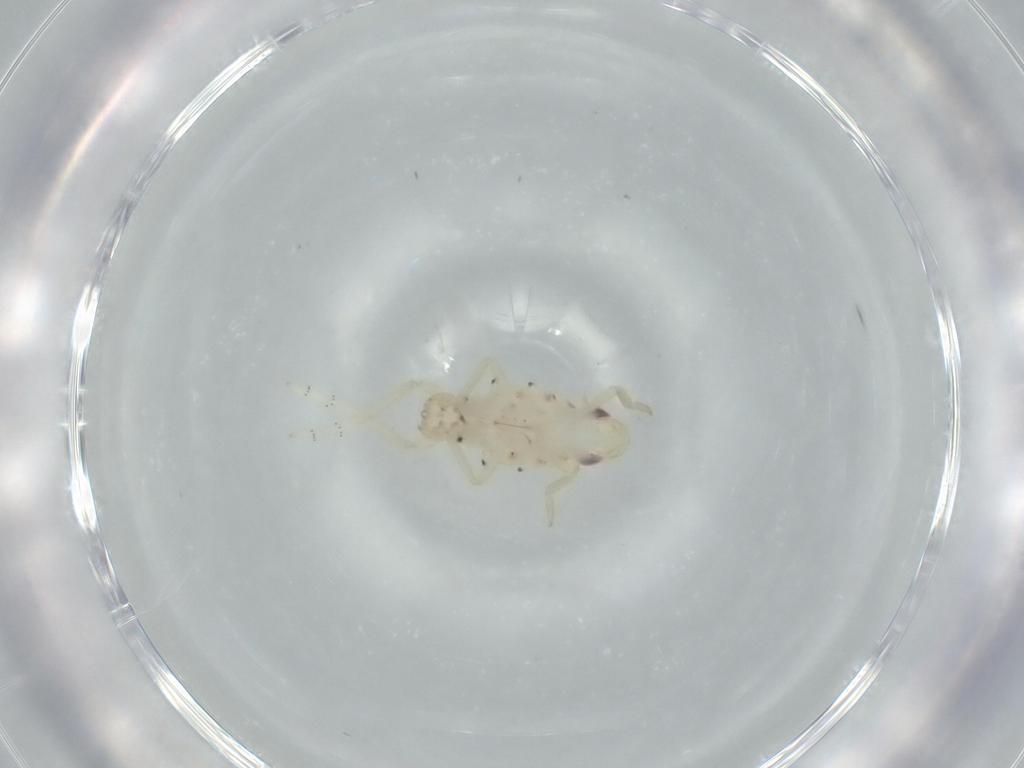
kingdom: Animalia
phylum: Arthropoda
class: Insecta
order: Hemiptera
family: Tropiduchidae
